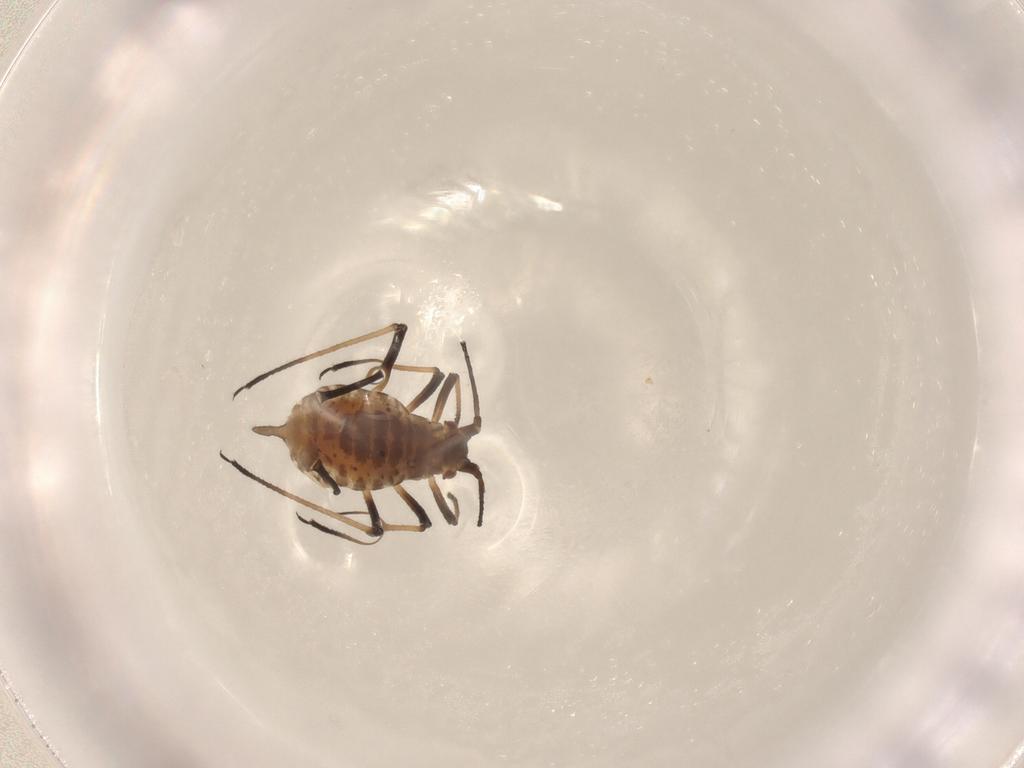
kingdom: Animalia
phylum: Arthropoda
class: Insecta
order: Hemiptera
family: Aphididae
